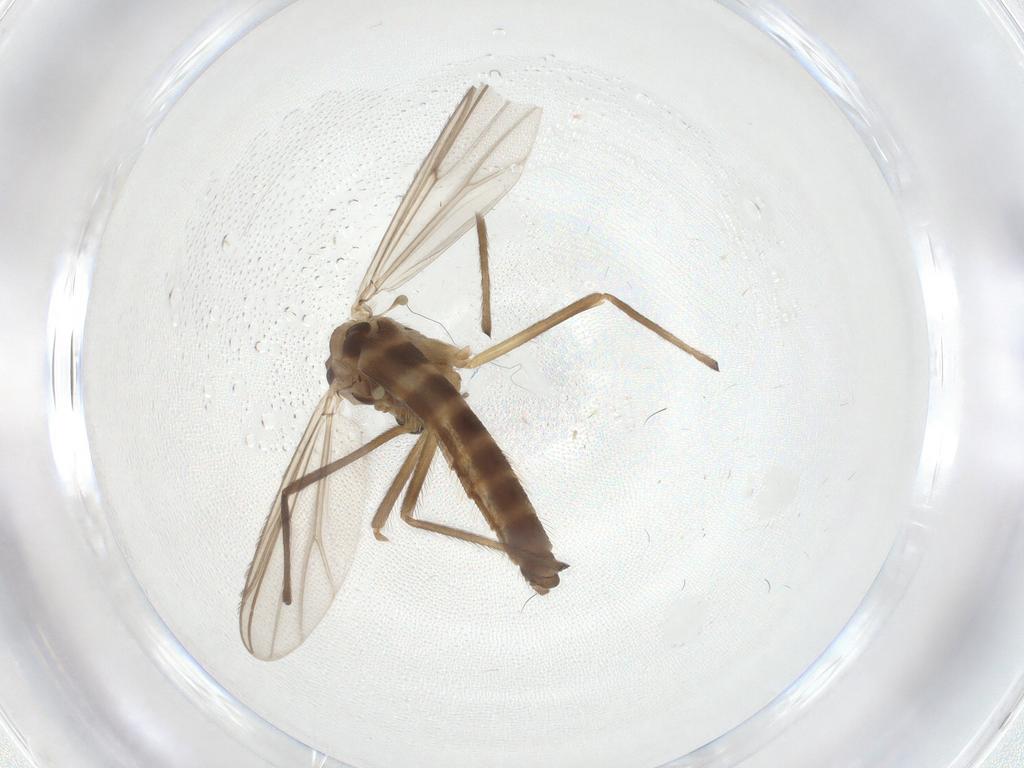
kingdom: Animalia
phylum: Arthropoda
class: Insecta
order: Diptera
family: Chironomidae
